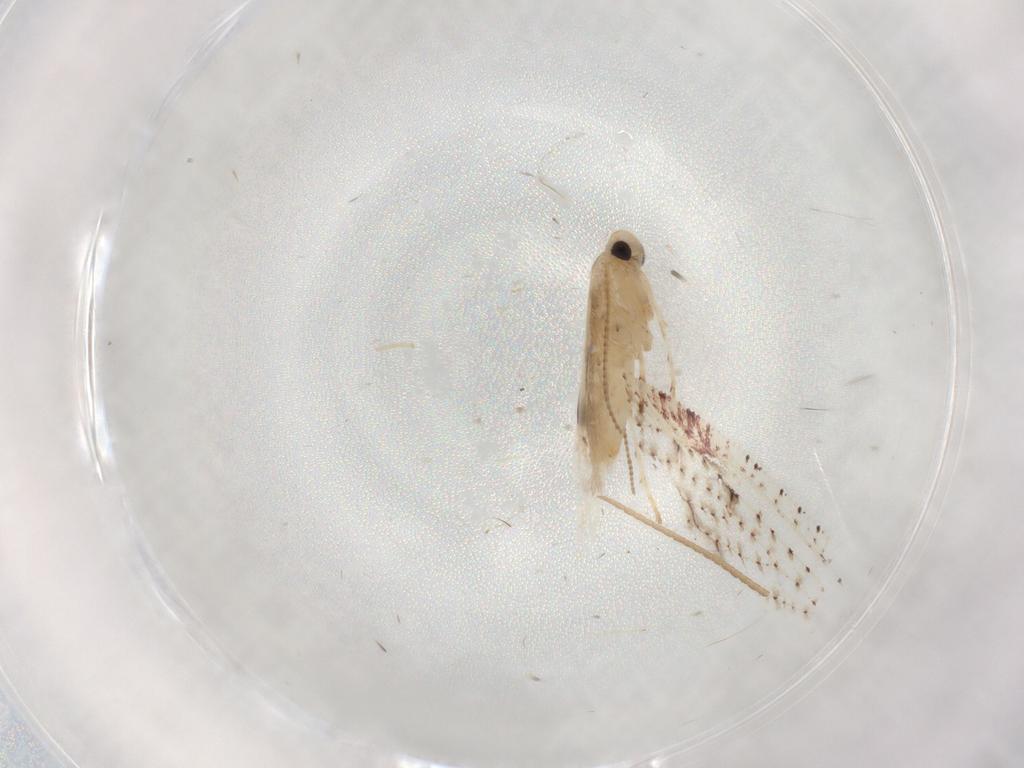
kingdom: Animalia
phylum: Arthropoda
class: Insecta
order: Lepidoptera
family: Gracillariidae
